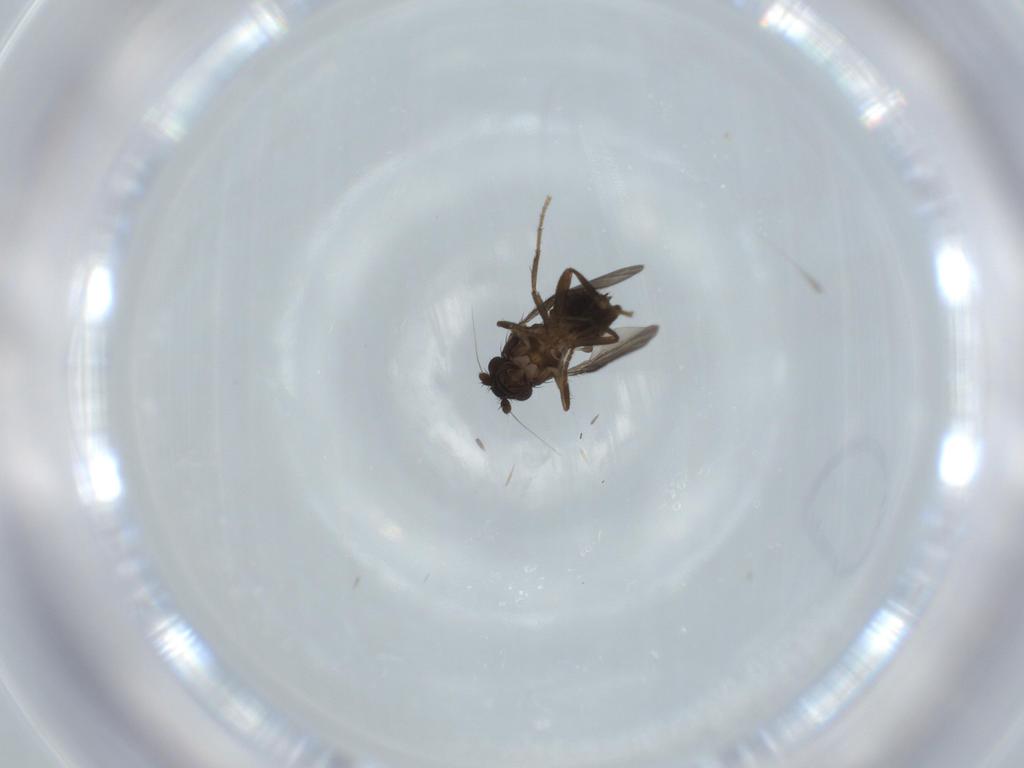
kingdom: Animalia
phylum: Arthropoda
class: Insecta
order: Diptera
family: Sphaeroceridae
